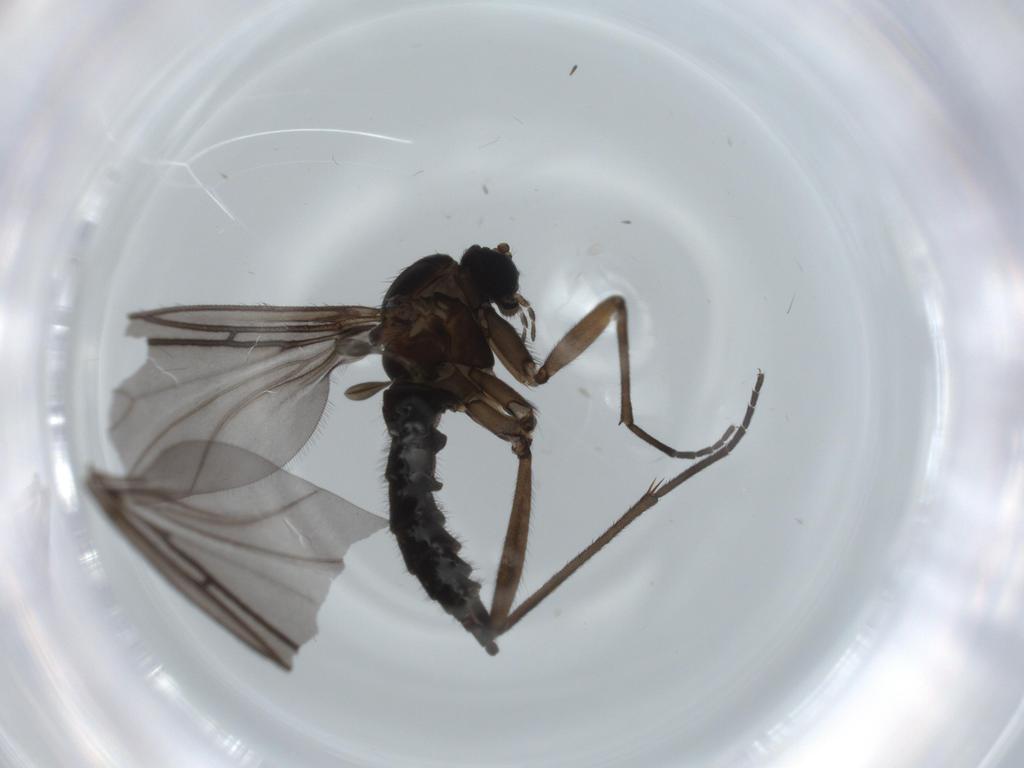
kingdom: Animalia
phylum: Arthropoda
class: Insecta
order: Diptera
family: Sciaridae
